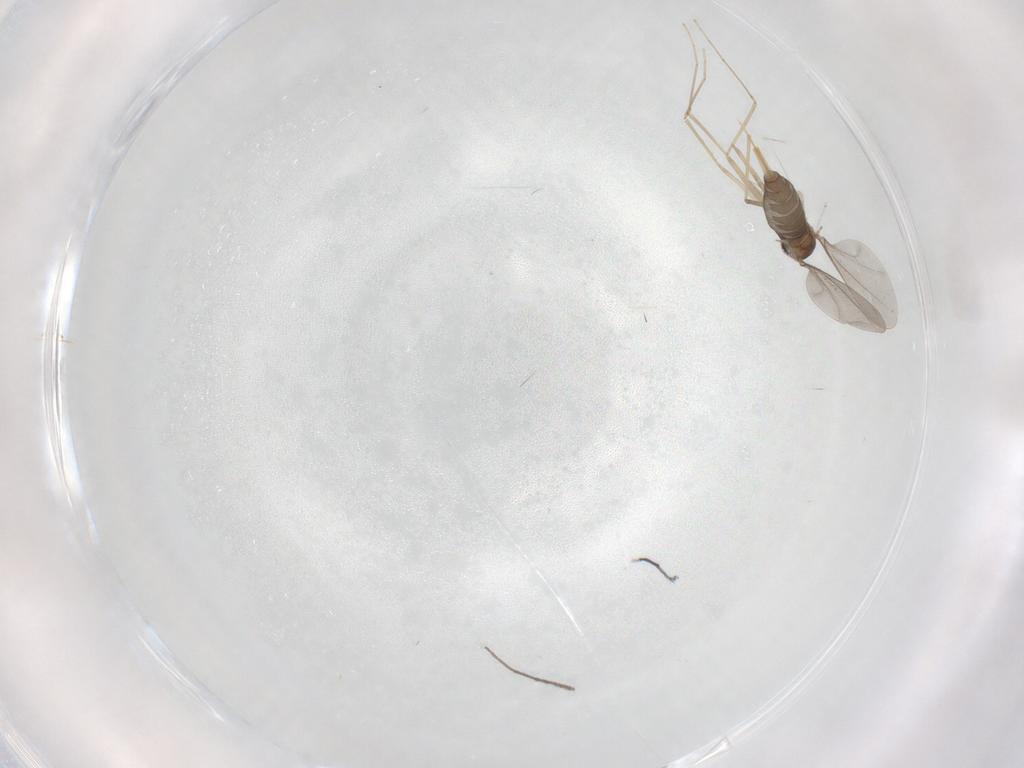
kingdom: Animalia
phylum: Arthropoda
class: Insecta
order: Diptera
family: Cecidomyiidae
